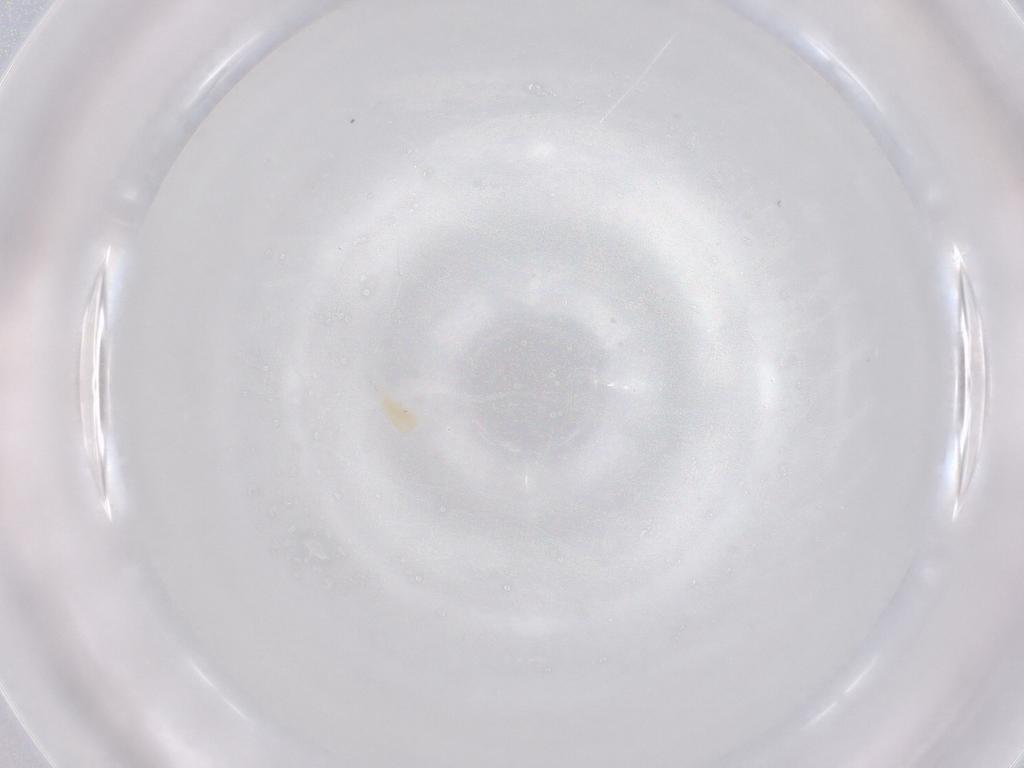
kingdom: Animalia
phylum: Arthropoda
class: Arachnida
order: Trombidiformes
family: Eupodidae
